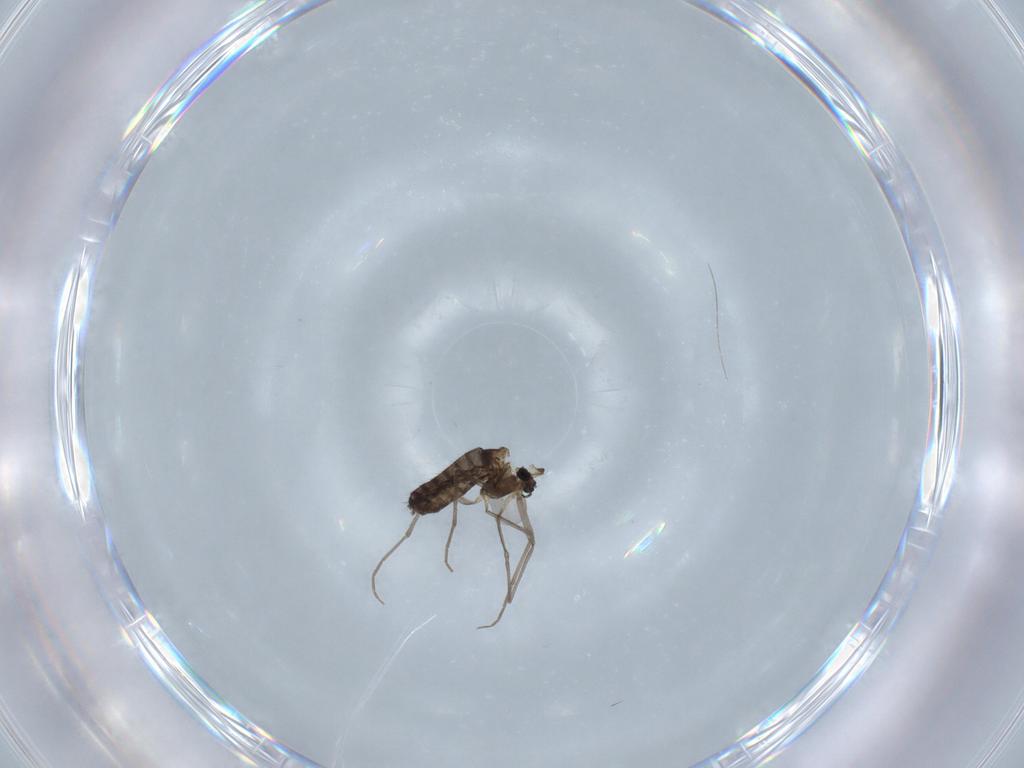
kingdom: Animalia
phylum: Arthropoda
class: Insecta
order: Diptera
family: Chironomidae
